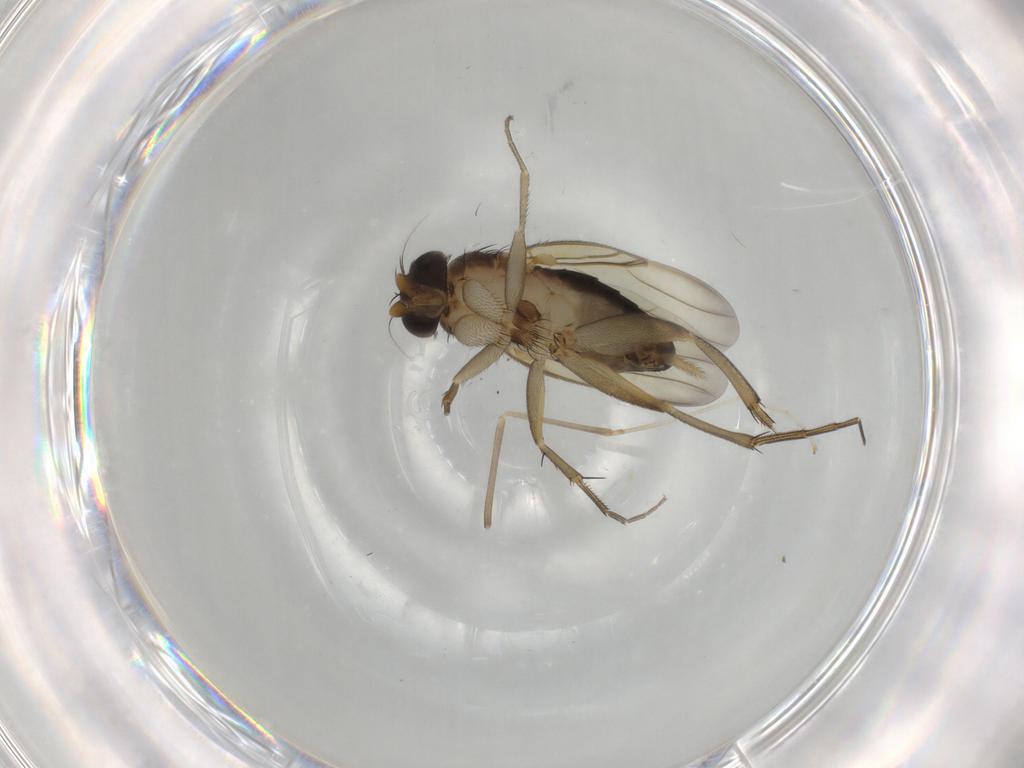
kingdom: Animalia
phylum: Arthropoda
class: Insecta
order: Diptera
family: Phoridae
